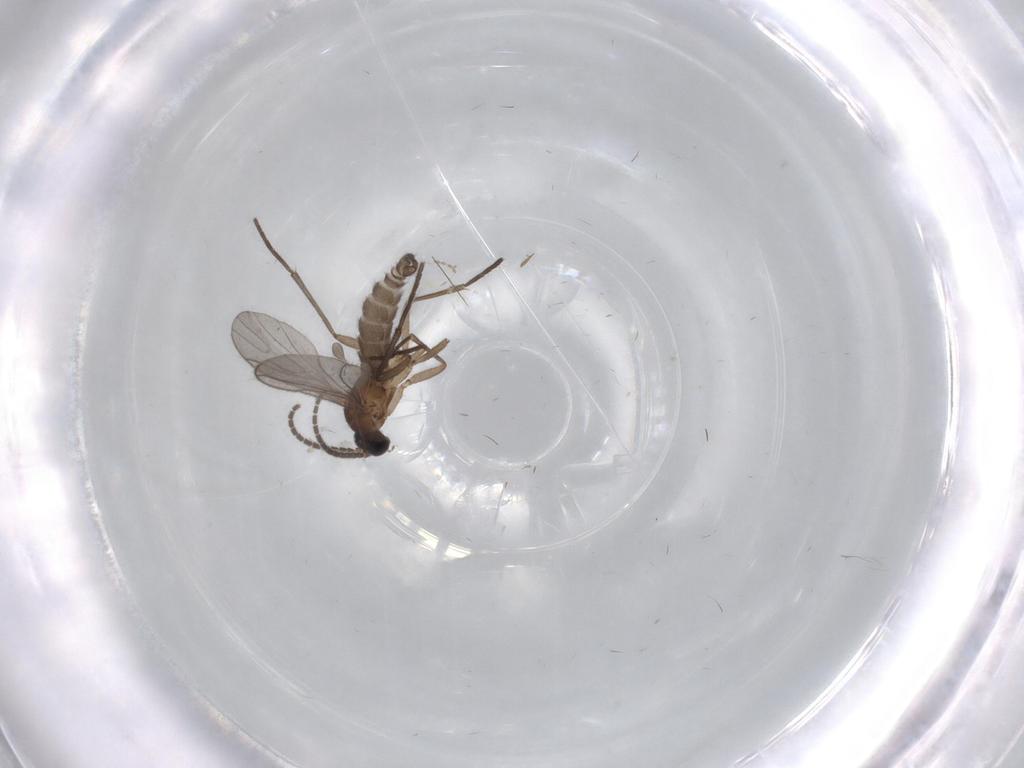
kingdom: Animalia
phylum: Arthropoda
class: Insecta
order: Diptera
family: Sciaridae
